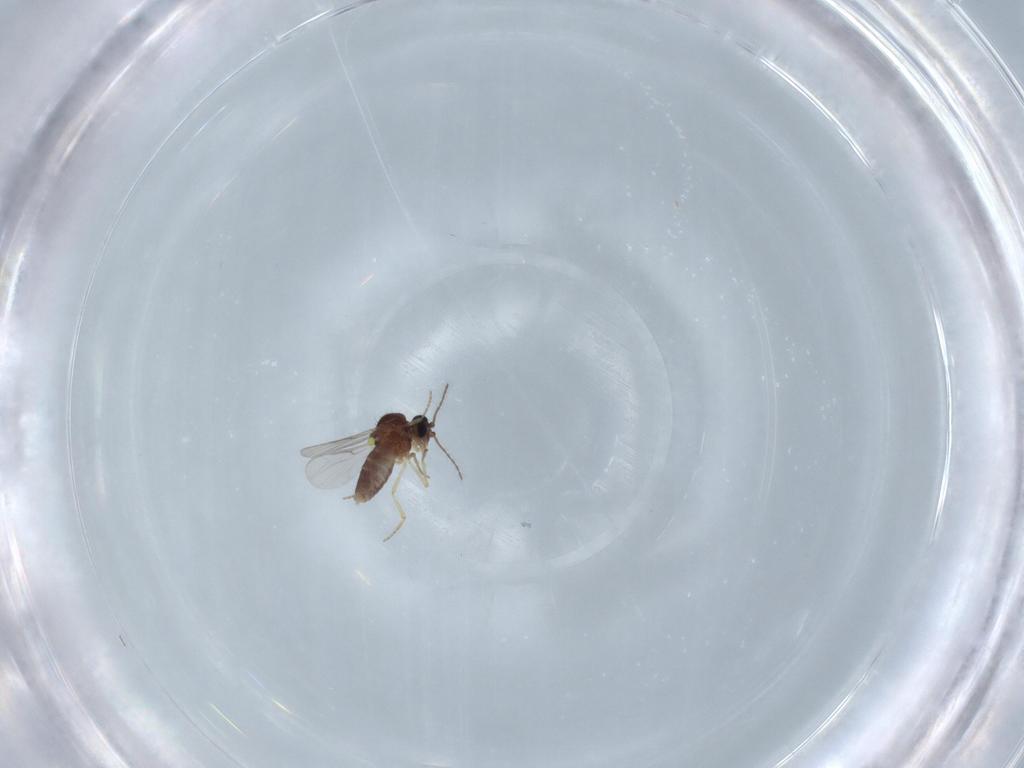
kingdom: Animalia
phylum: Arthropoda
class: Insecta
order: Diptera
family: Ceratopogonidae
